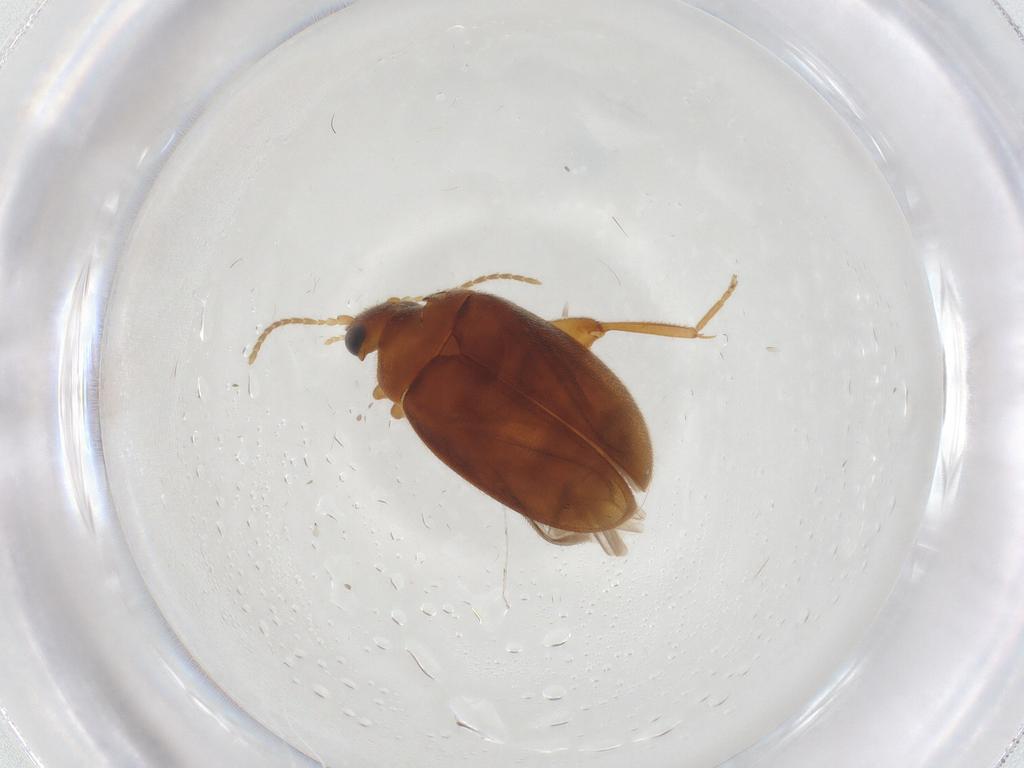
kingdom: Animalia
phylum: Arthropoda
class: Insecta
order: Coleoptera
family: Scirtidae
